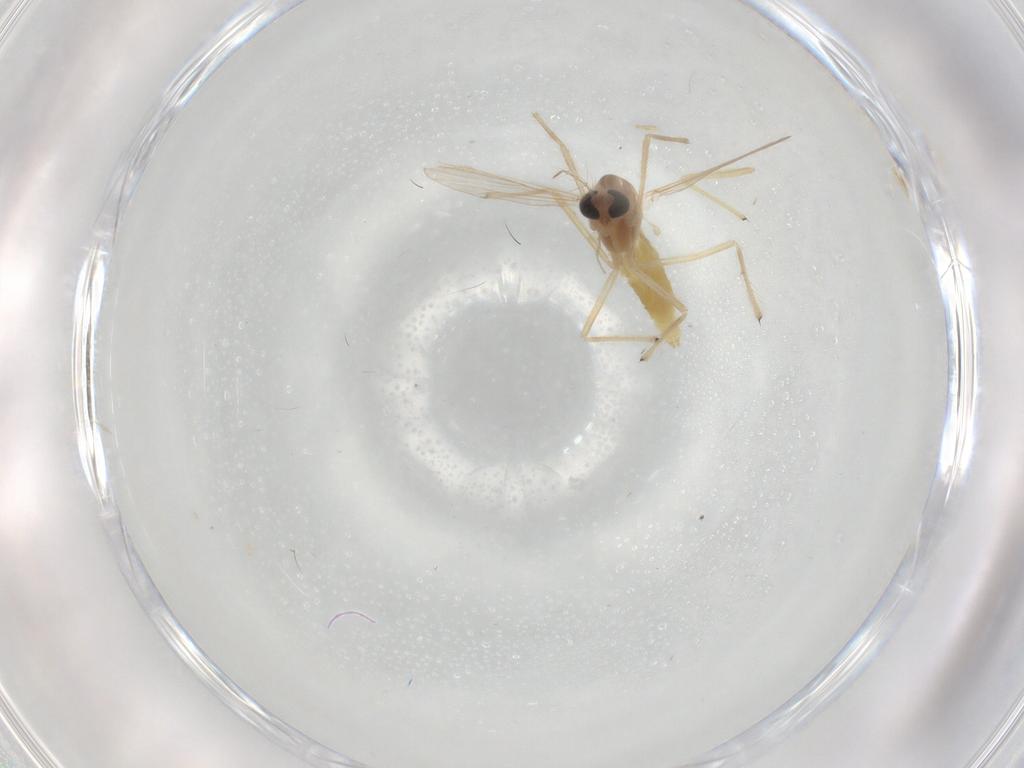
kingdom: Animalia
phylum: Arthropoda
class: Insecta
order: Diptera
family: Chironomidae
